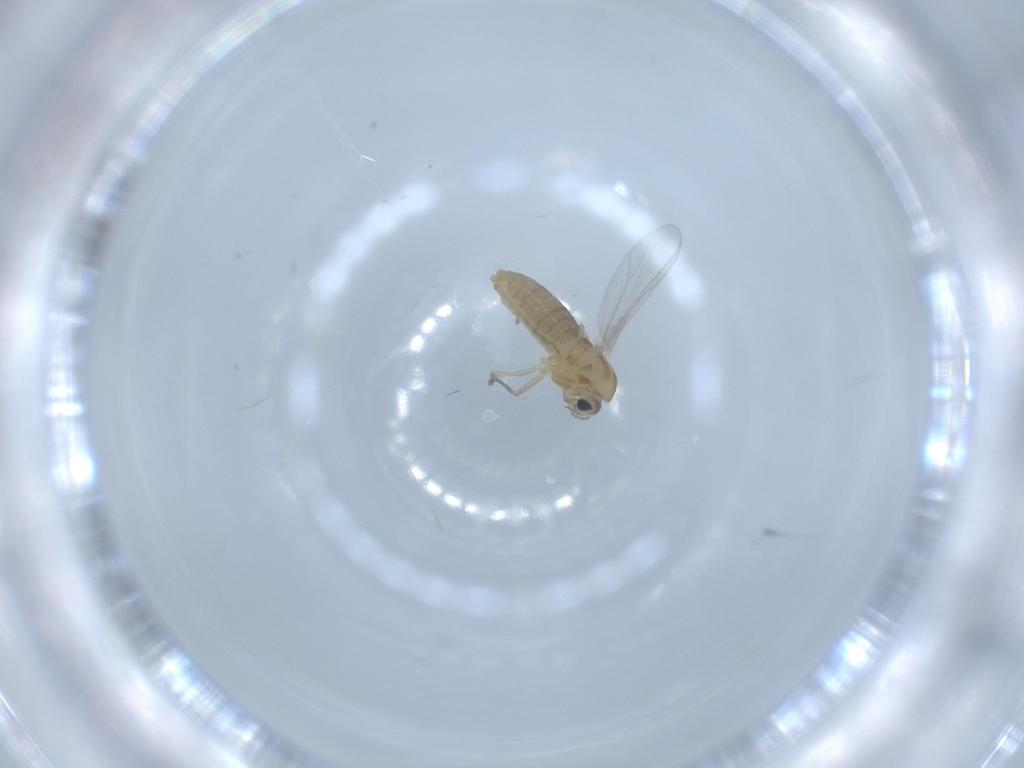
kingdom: Animalia
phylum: Arthropoda
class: Insecta
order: Diptera
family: Chironomidae
